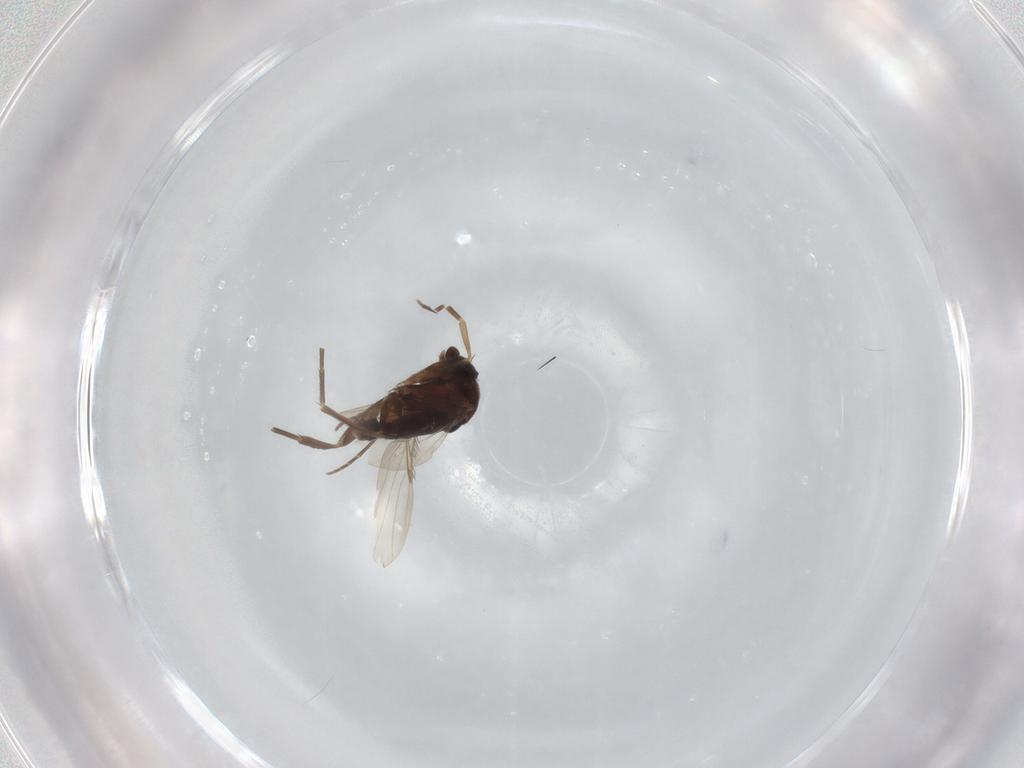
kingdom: Animalia
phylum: Arthropoda
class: Insecta
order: Diptera
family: Phoridae
